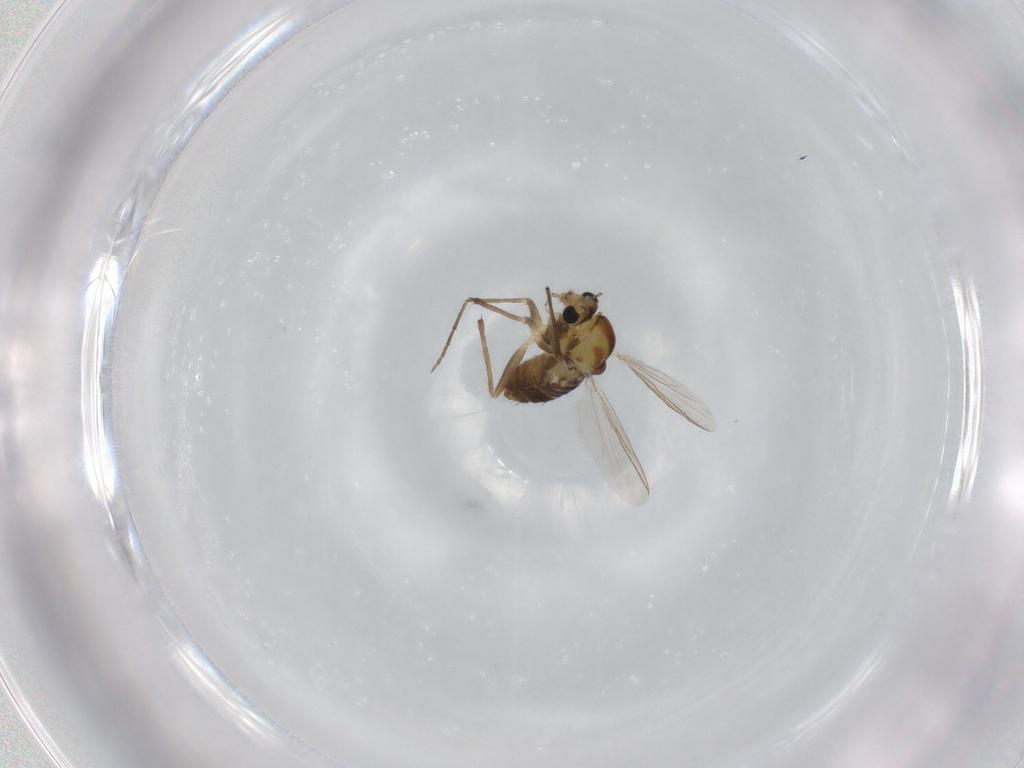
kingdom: Animalia
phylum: Arthropoda
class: Insecta
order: Diptera
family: Chironomidae
